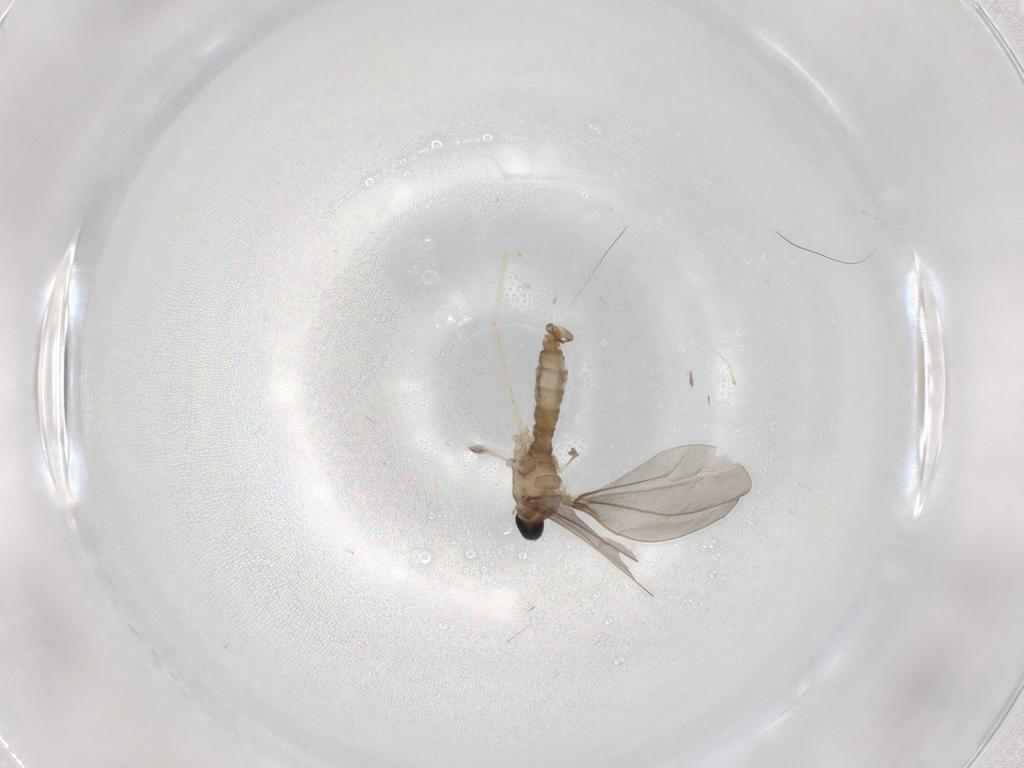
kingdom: Animalia
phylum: Arthropoda
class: Insecta
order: Diptera
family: Cecidomyiidae
